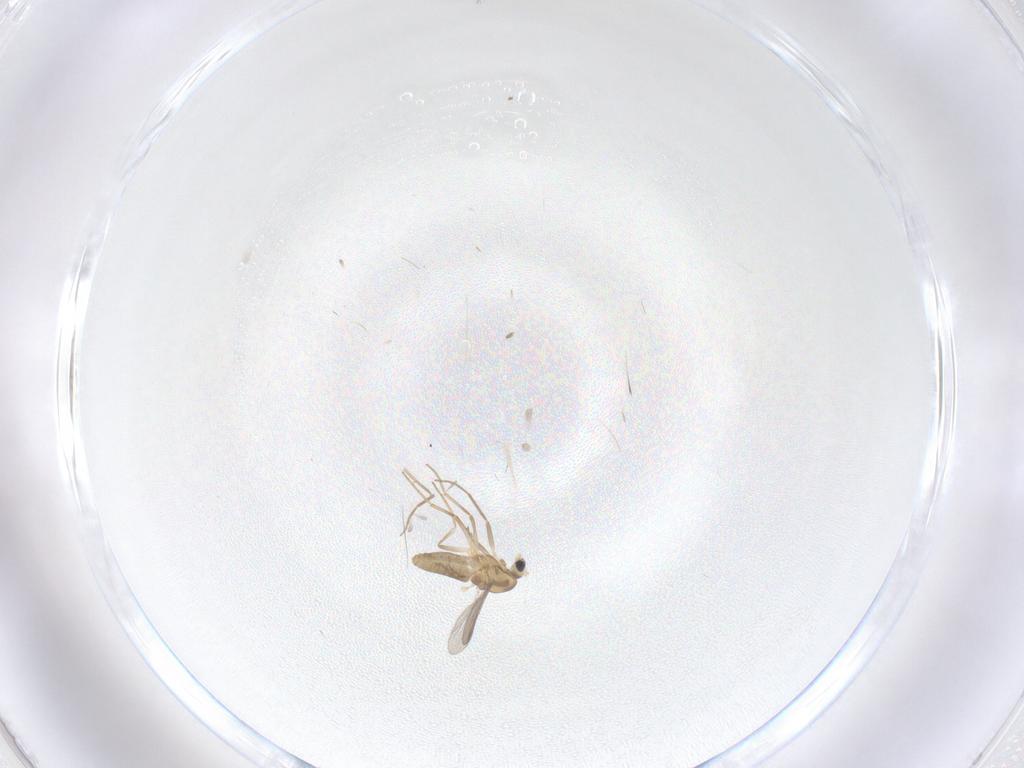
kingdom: Animalia
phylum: Arthropoda
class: Insecta
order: Diptera
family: Chironomidae
